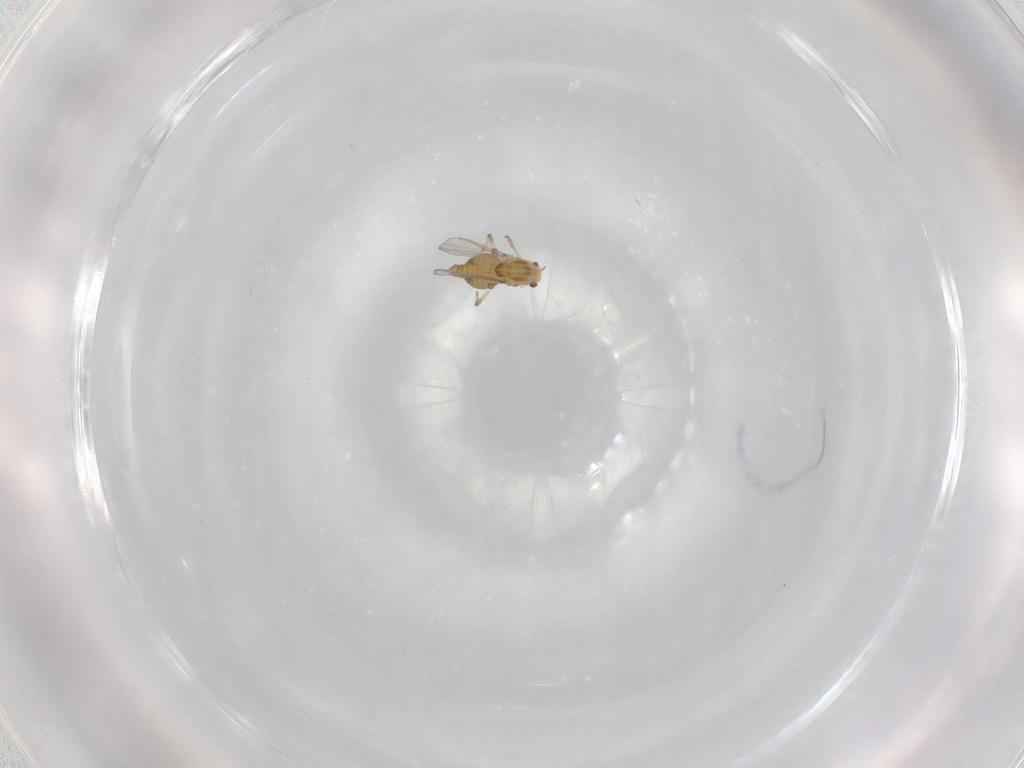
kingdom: Animalia
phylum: Arthropoda
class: Insecta
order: Diptera
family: Chironomidae
